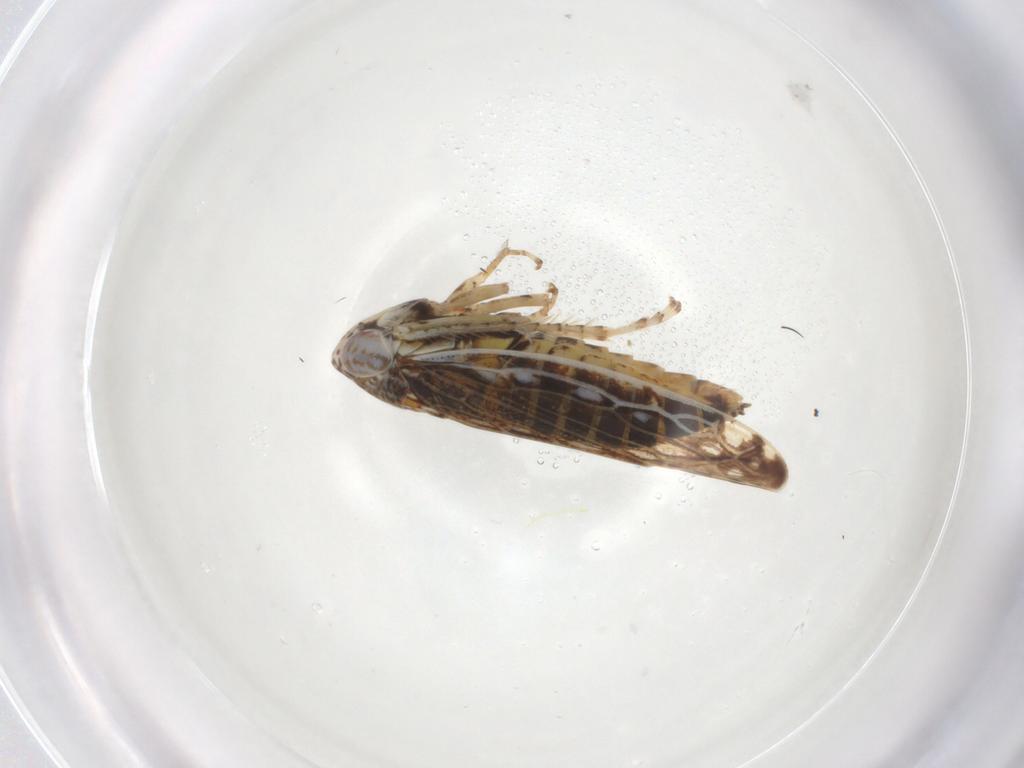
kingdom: Animalia
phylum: Arthropoda
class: Insecta
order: Hemiptera
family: Cicadellidae
